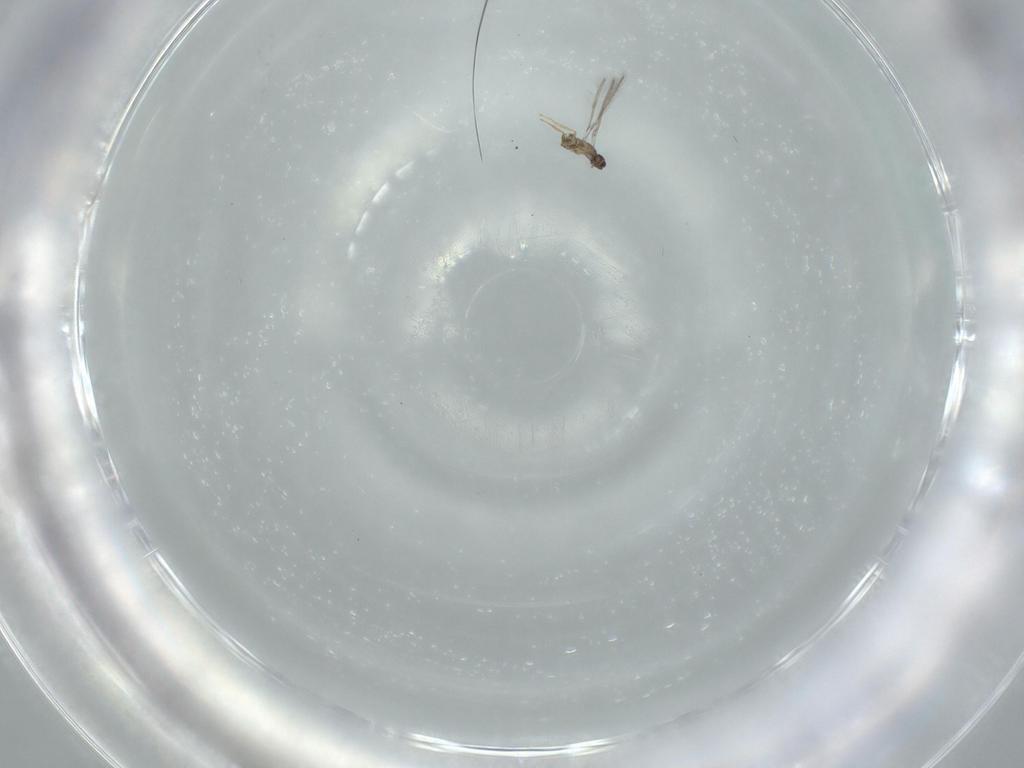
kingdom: Animalia
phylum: Arthropoda
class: Insecta
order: Hymenoptera
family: Mymaridae
